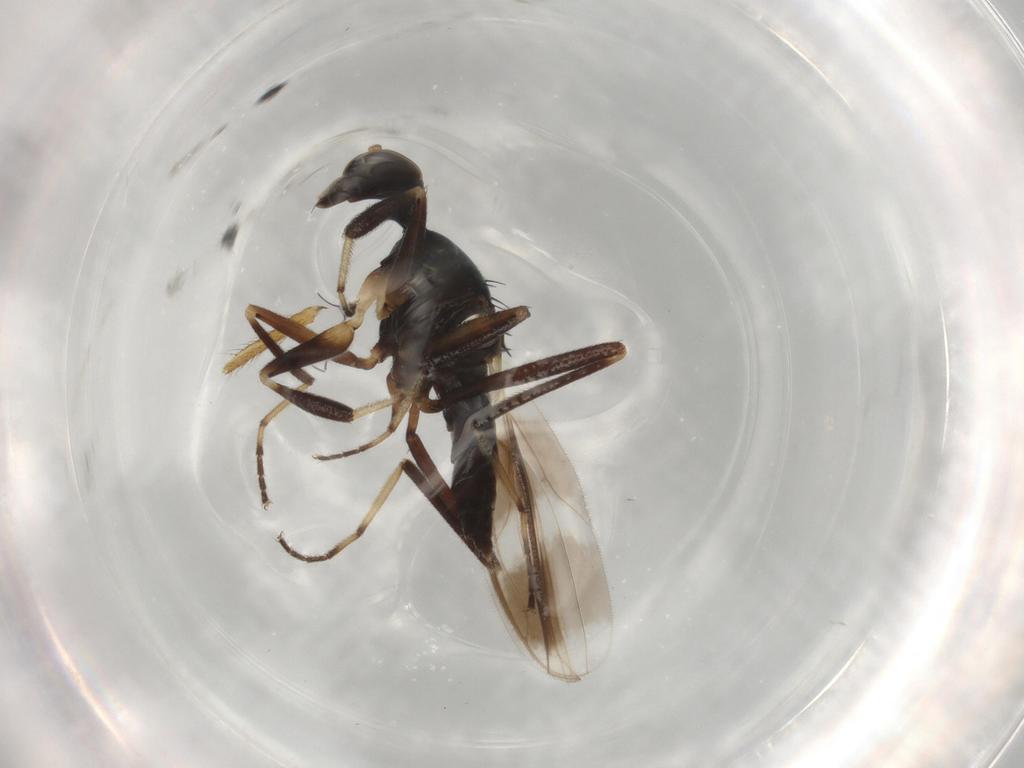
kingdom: Animalia
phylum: Arthropoda
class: Insecta
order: Diptera
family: Hybotidae
